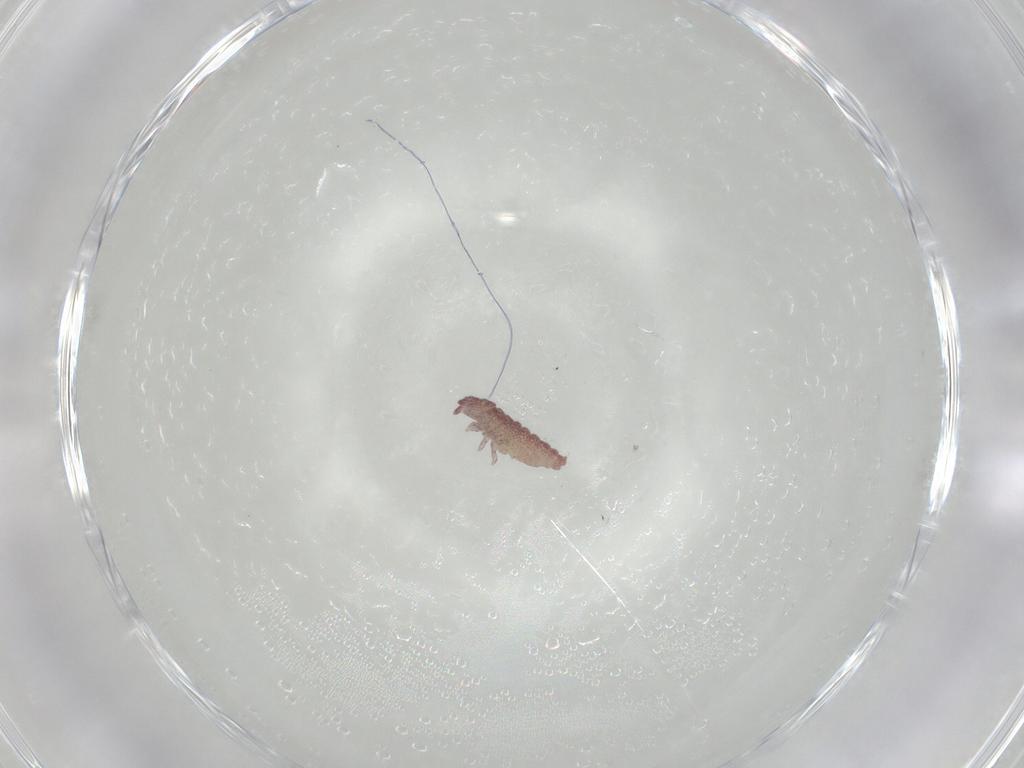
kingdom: Animalia
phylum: Arthropoda
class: Collembola
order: Poduromorpha
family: Hypogastruridae
